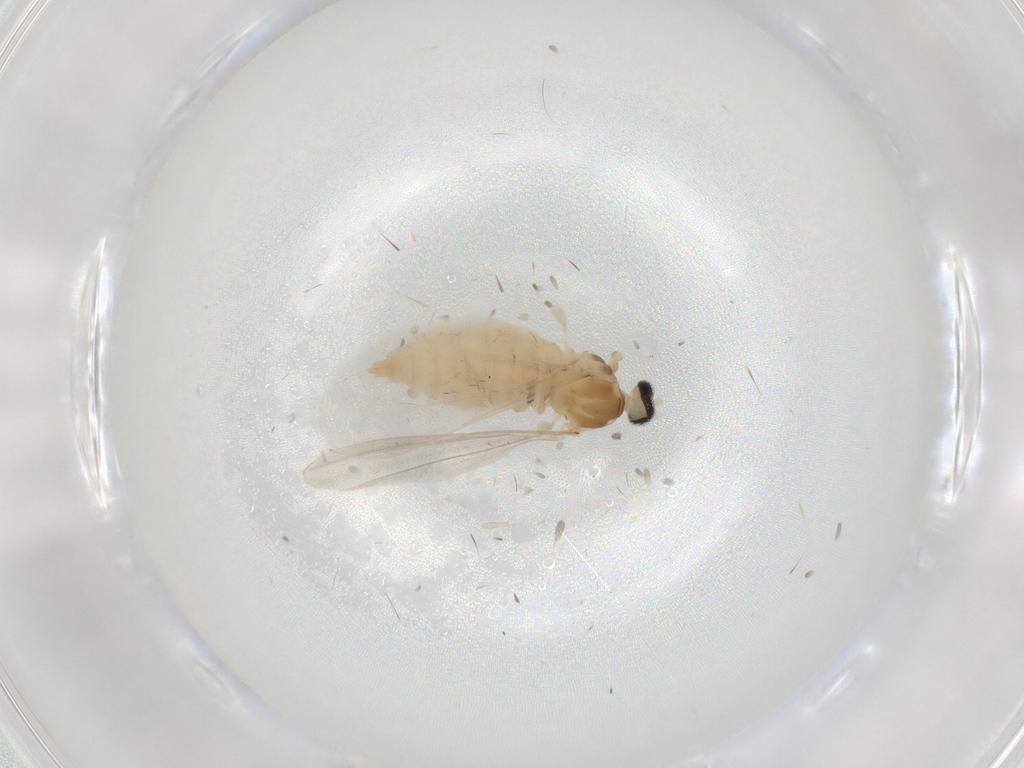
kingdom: Animalia
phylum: Arthropoda
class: Insecta
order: Diptera
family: Cecidomyiidae
